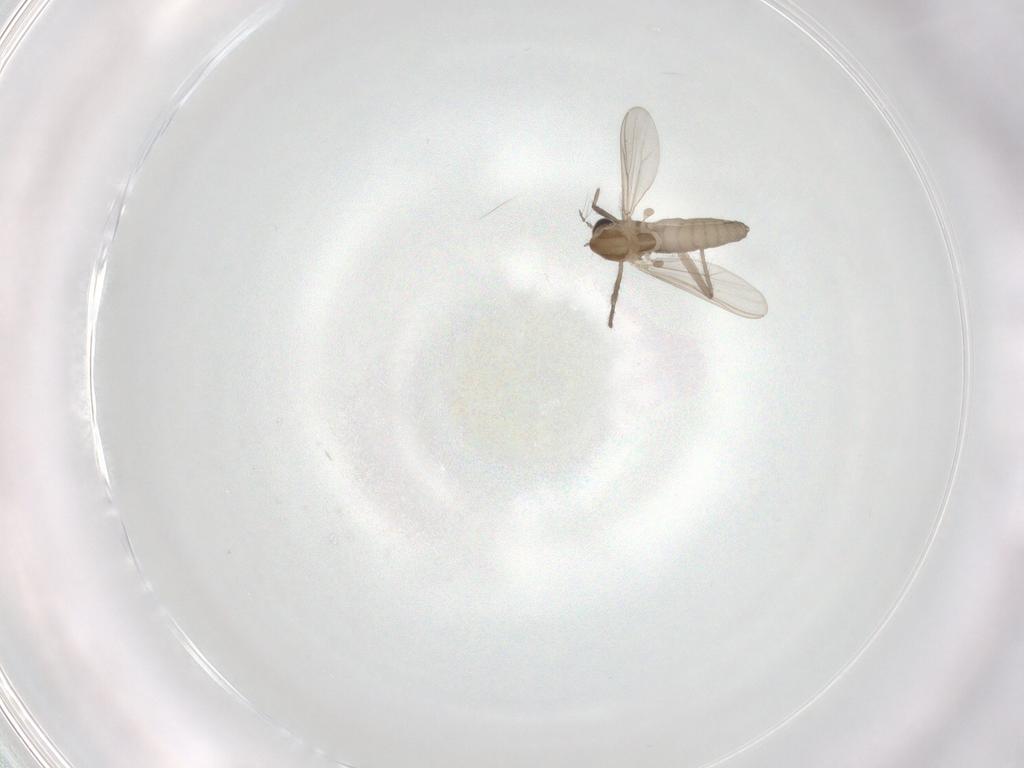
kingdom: Animalia
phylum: Arthropoda
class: Insecta
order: Diptera
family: Chironomidae
